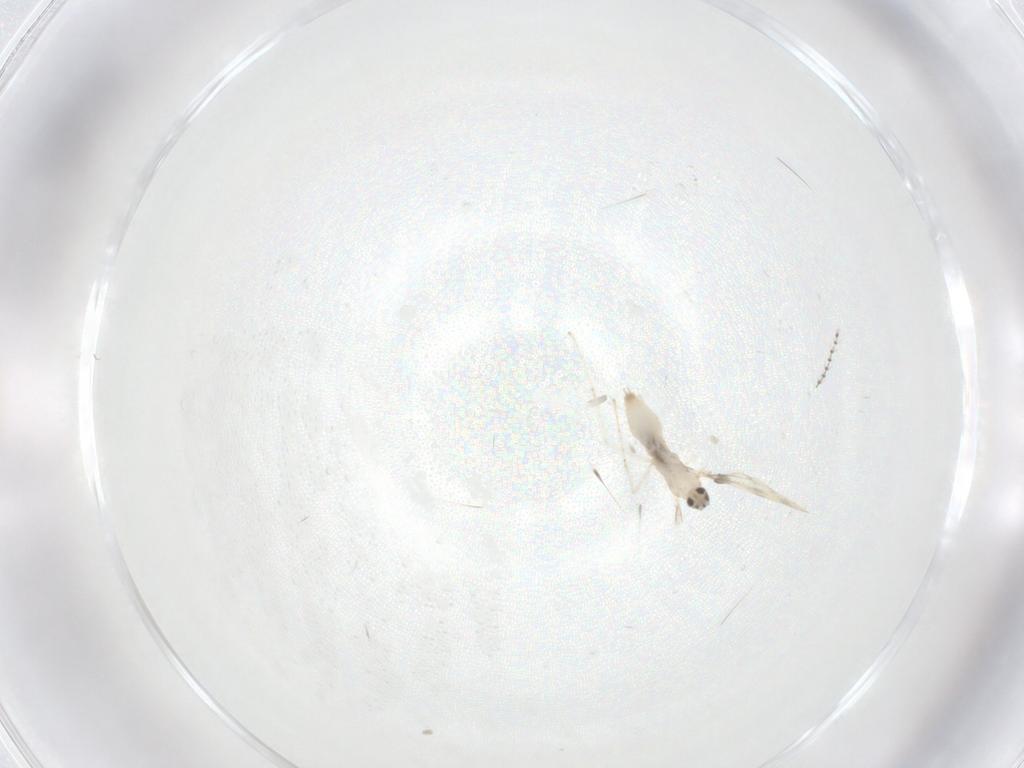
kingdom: Animalia
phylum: Arthropoda
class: Insecta
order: Diptera
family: Cecidomyiidae
